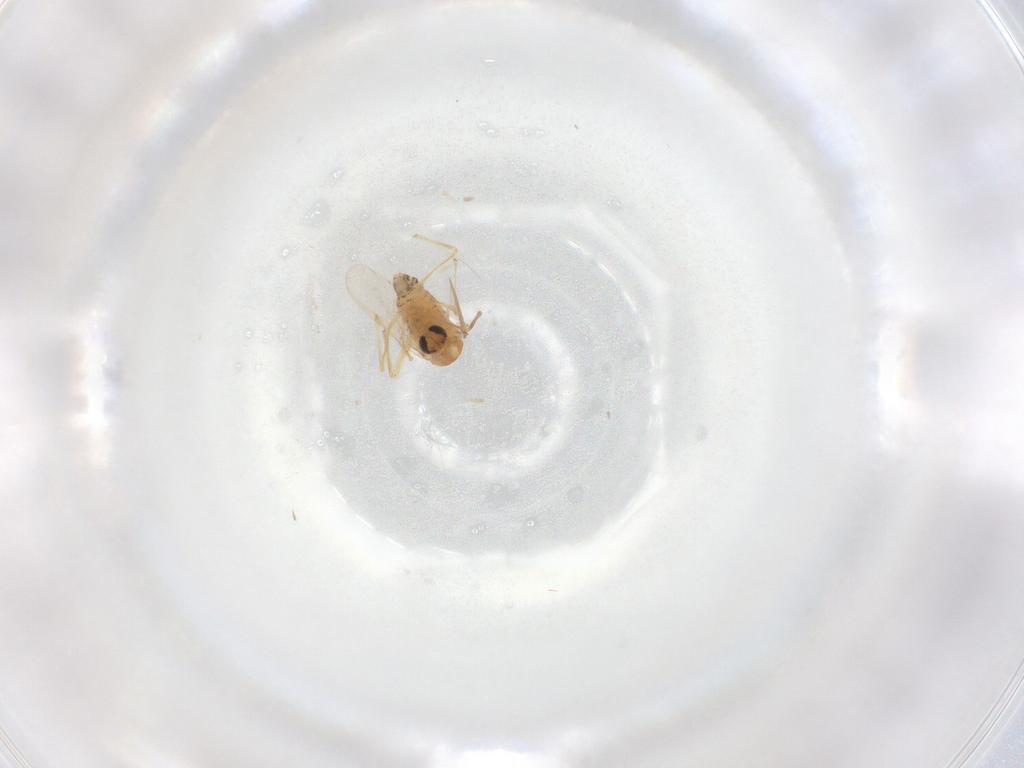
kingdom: Animalia
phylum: Arthropoda
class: Insecta
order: Diptera
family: Chironomidae
